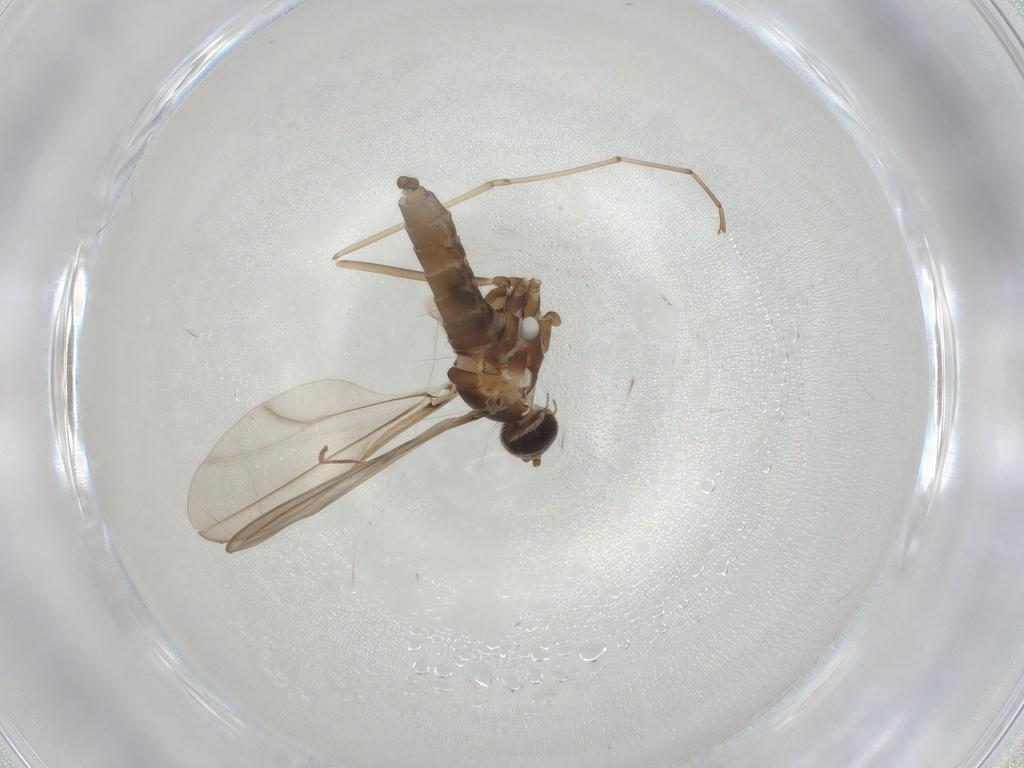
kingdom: Animalia
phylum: Arthropoda
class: Insecta
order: Diptera
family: Cecidomyiidae
